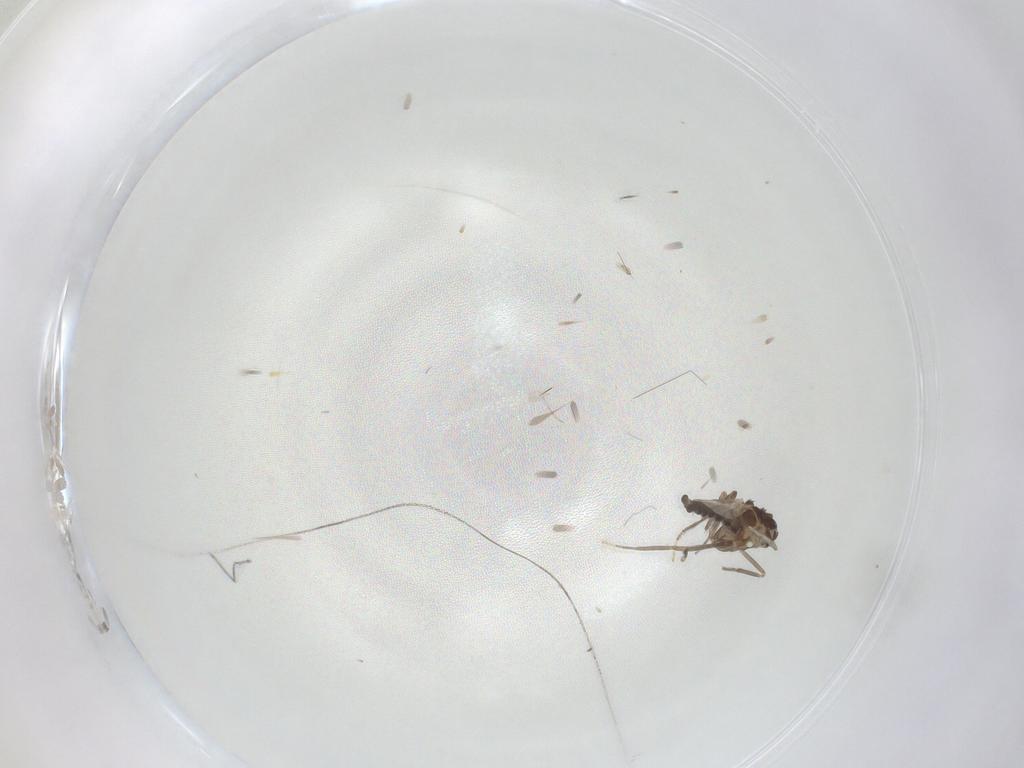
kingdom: Animalia
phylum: Arthropoda
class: Insecta
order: Diptera
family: Ceratopogonidae
